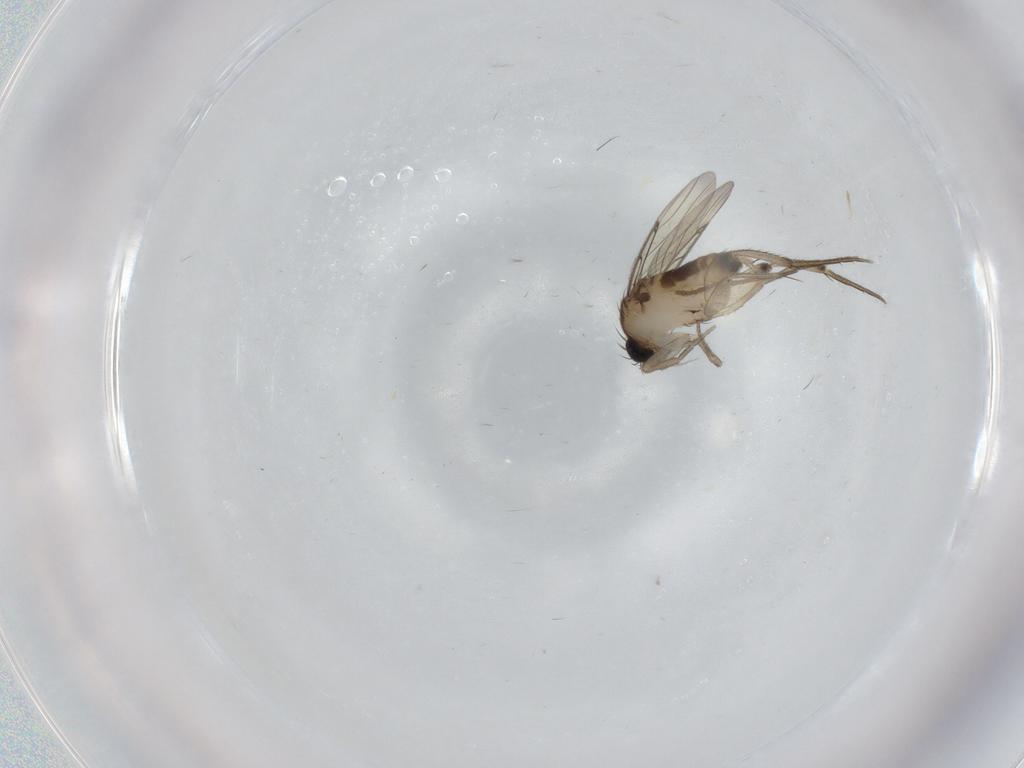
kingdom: Animalia
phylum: Arthropoda
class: Insecta
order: Diptera
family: Phoridae
